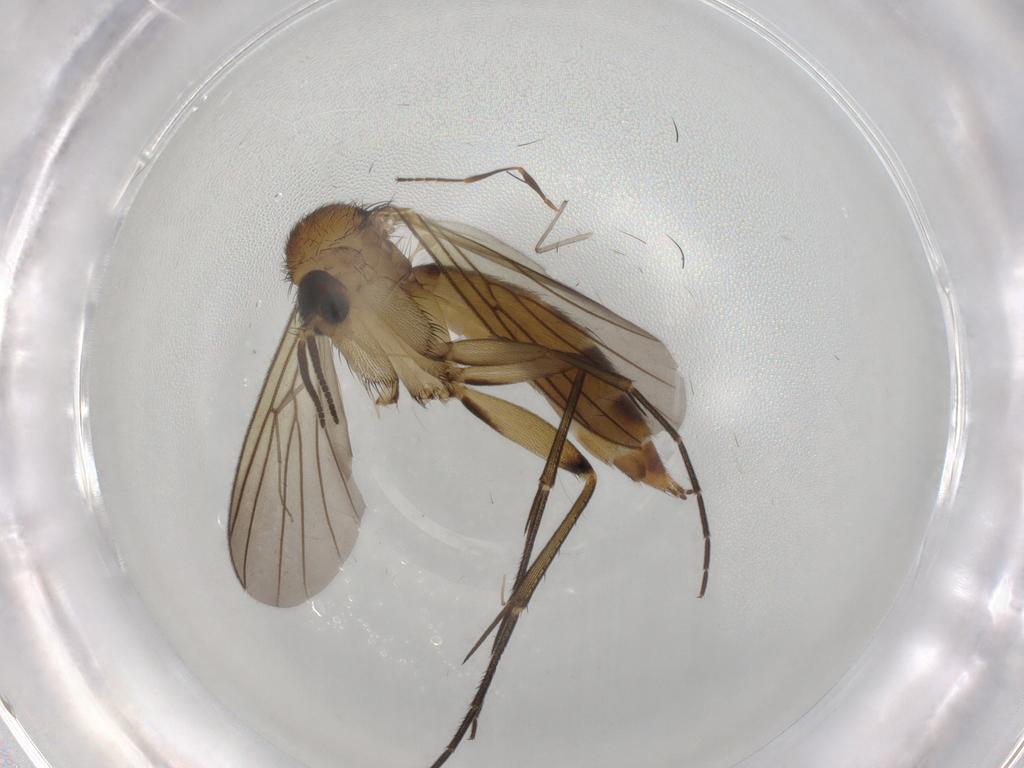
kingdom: Animalia
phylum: Arthropoda
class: Insecta
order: Diptera
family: Mycetophilidae
